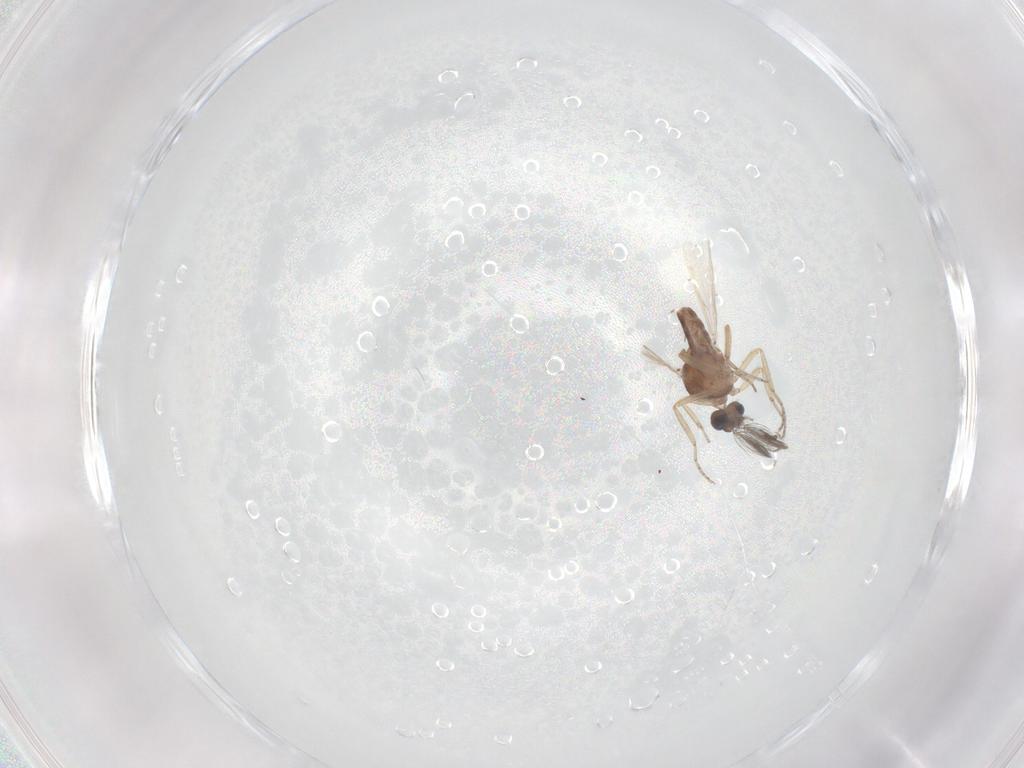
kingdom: Animalia
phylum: Arthropoda
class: Insecta
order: Diptera
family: Ceratopogonidae
